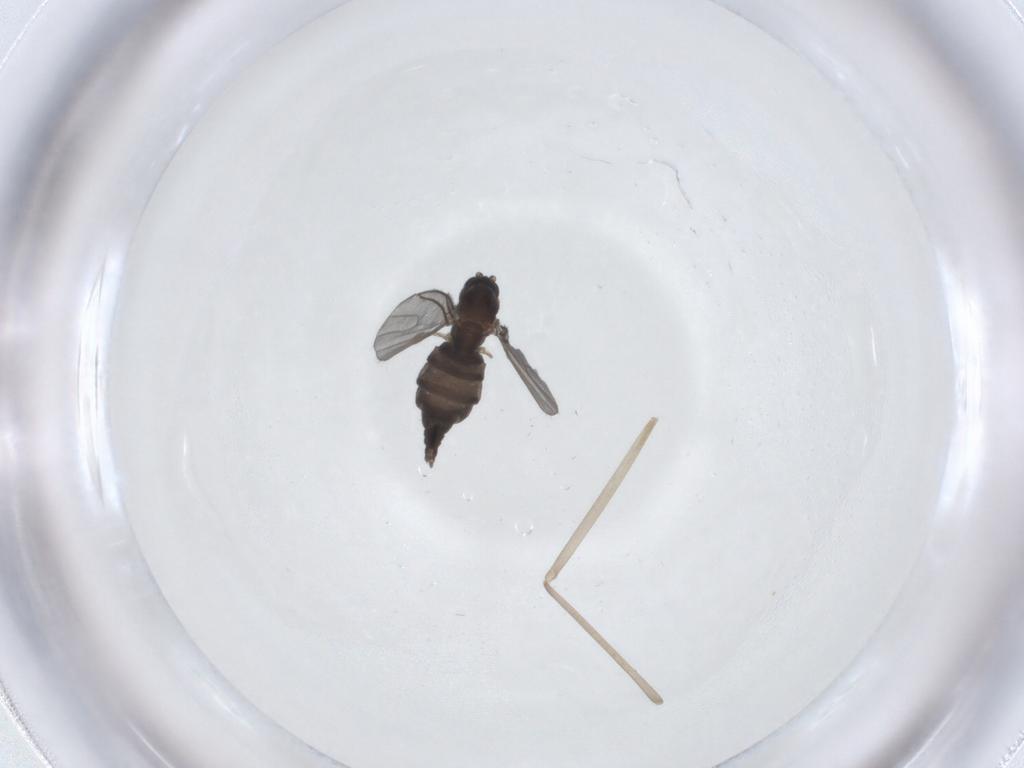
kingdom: Animalia
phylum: Arthropoda
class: Insecta
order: Diptera
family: Sciaridae
